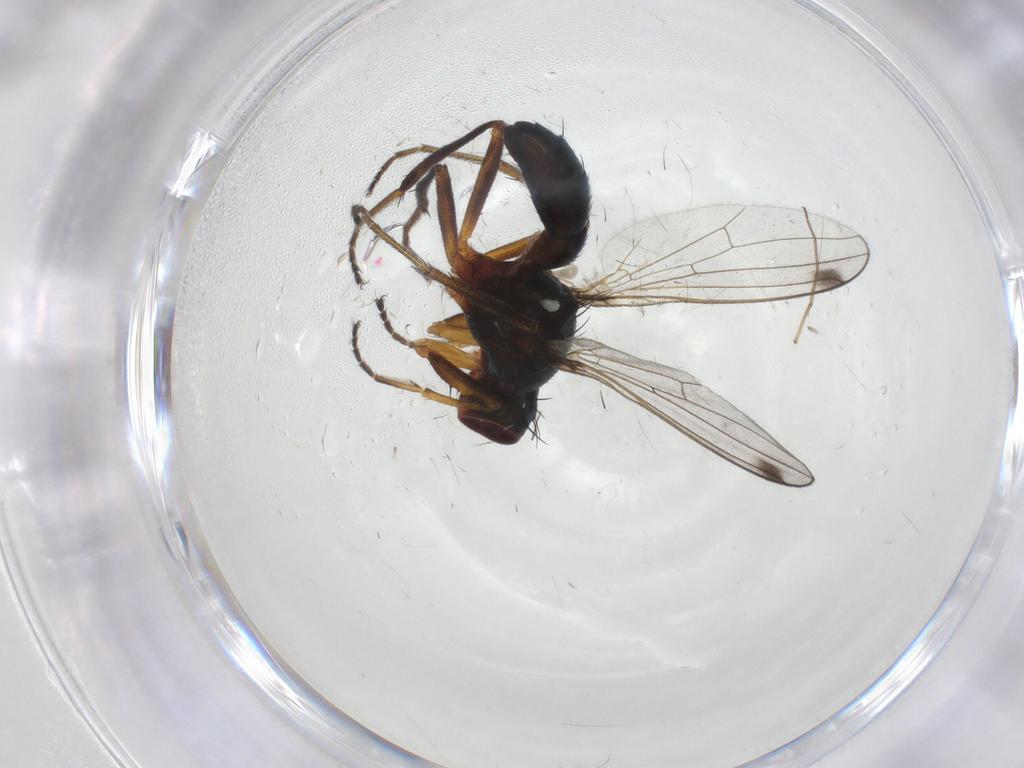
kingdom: Animalia
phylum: Arthropoda
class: Insecta
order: Diptera
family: Sepsidae
